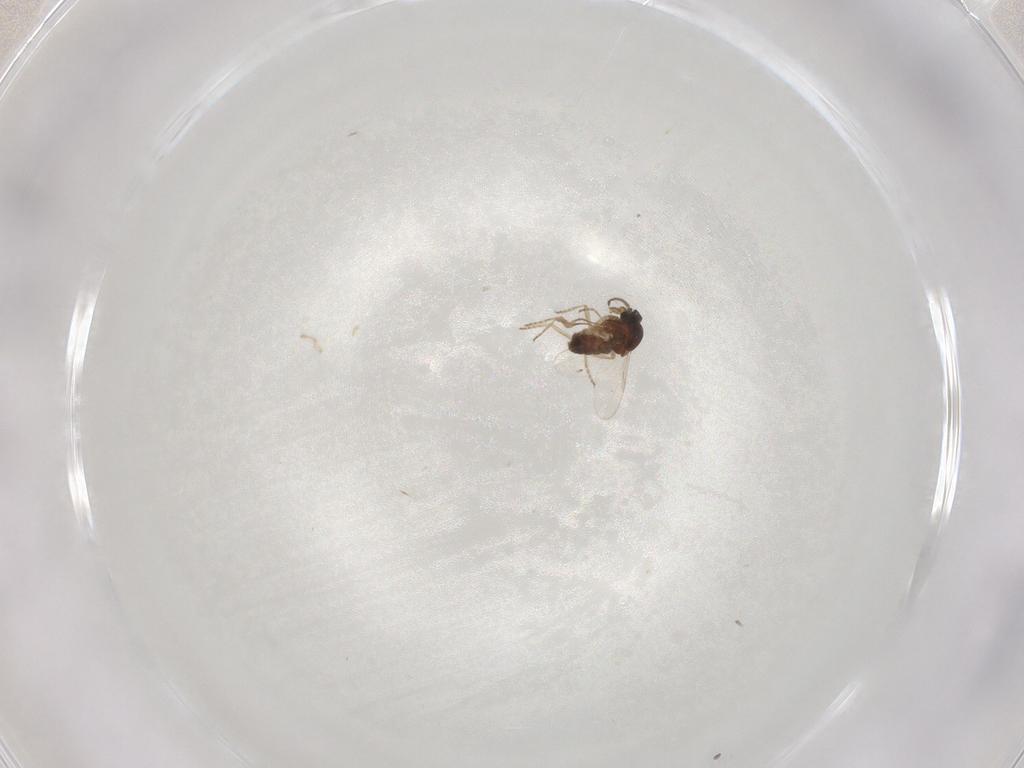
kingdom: Animalia
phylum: Arthropoda
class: Insecta
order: Diptera
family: Ceratopogonidae
